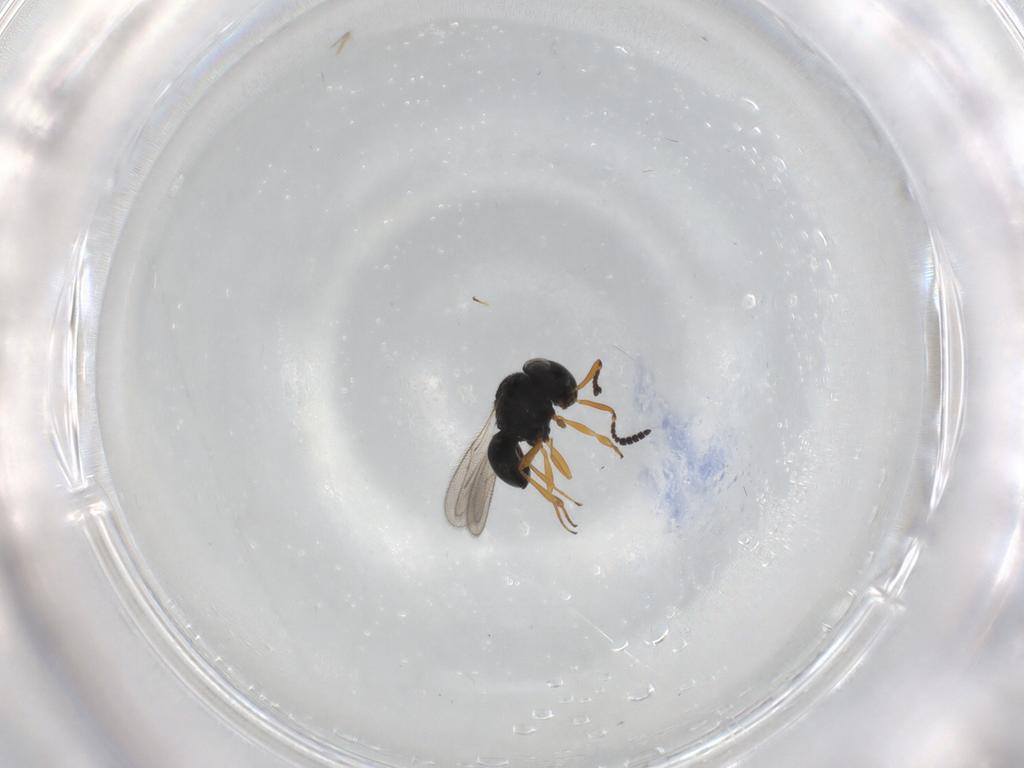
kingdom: Animalia
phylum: Arthropoda
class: Insecta
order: Hymenoptera
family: Scelionidae
